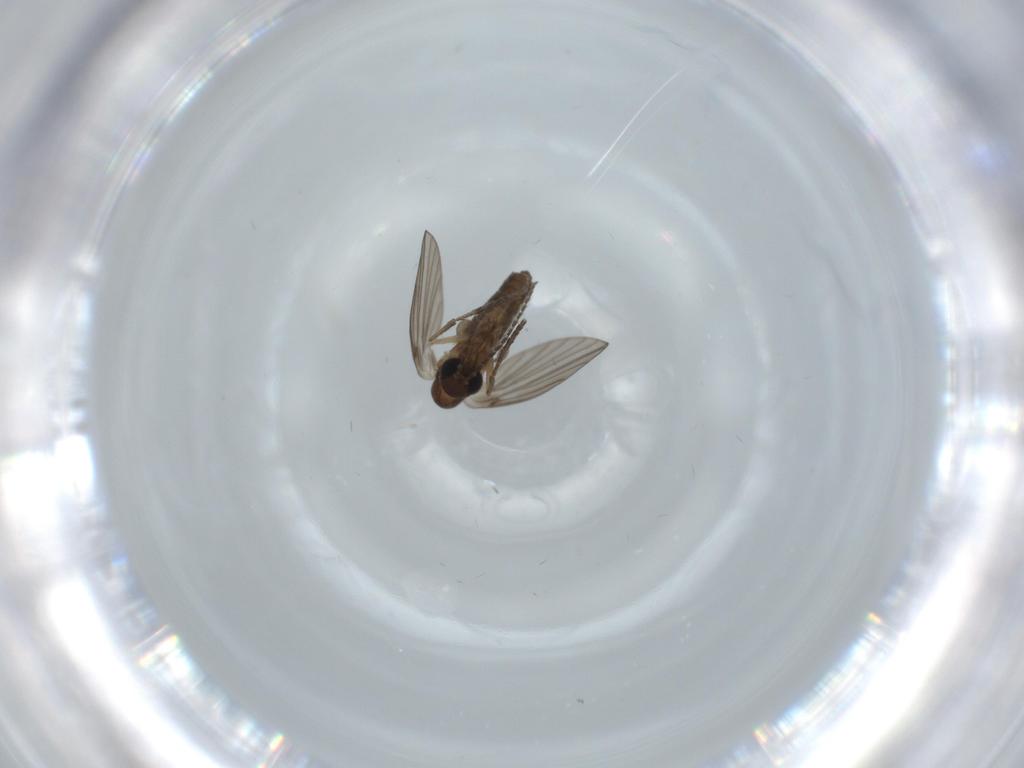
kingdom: Animalia
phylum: Arthropoda
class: Insecta
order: Diptera
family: Psychodidae
